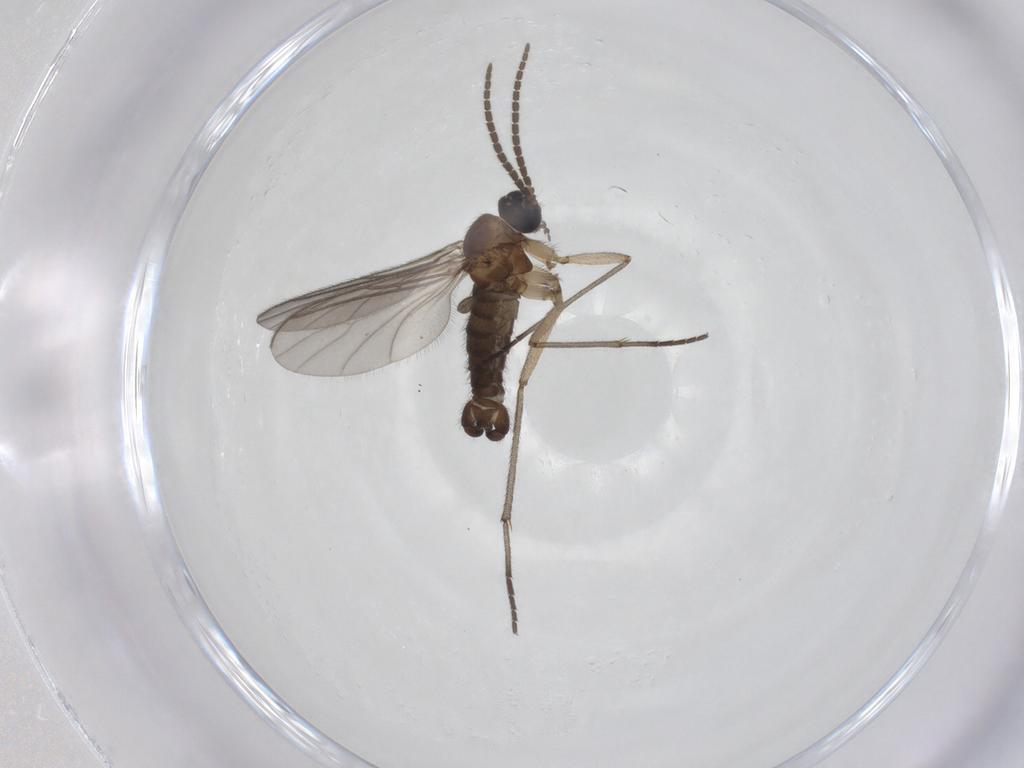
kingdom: Animalia
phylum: Arthropoda
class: Insecta
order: Diptera
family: Sciaridae
